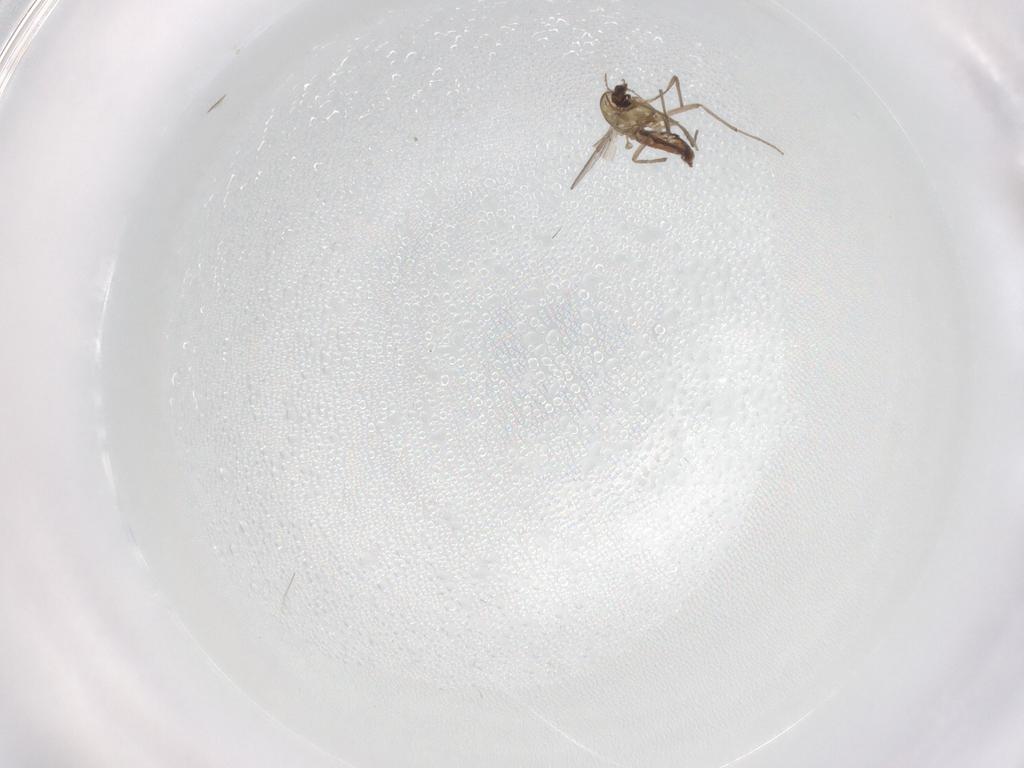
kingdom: Animalia
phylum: Arthropoda
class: Insecta
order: Diptera
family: Chironomidae
